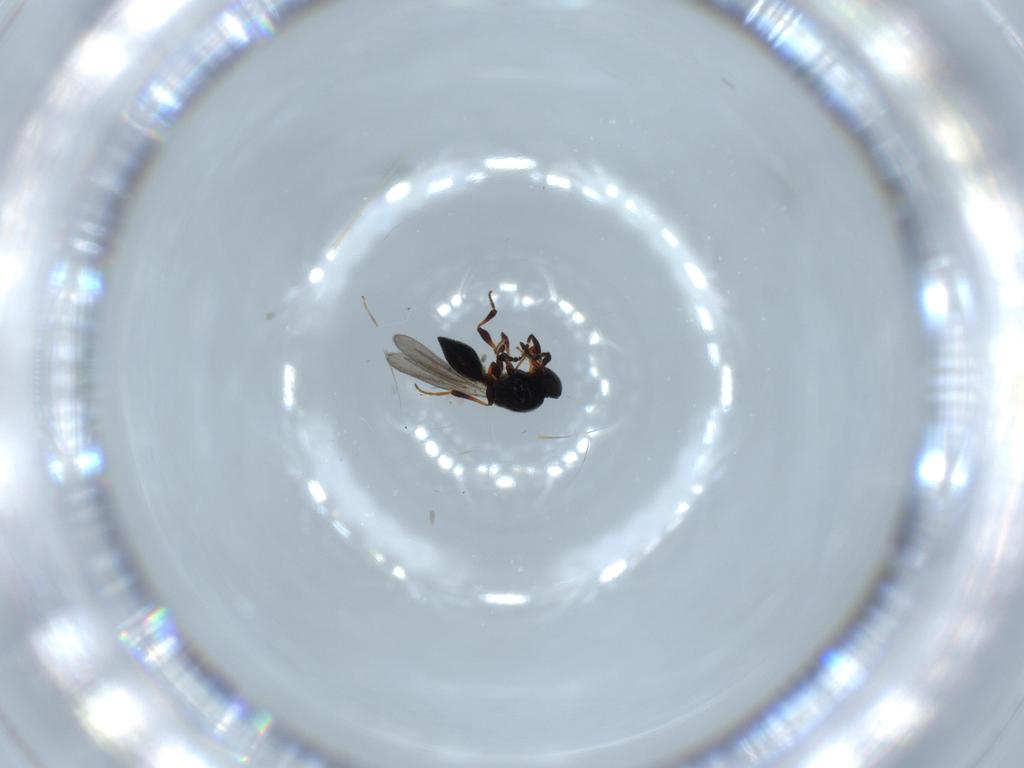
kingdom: Animalia
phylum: Arthropoda
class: Insecta
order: Hymenoptera
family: Platygastridae
